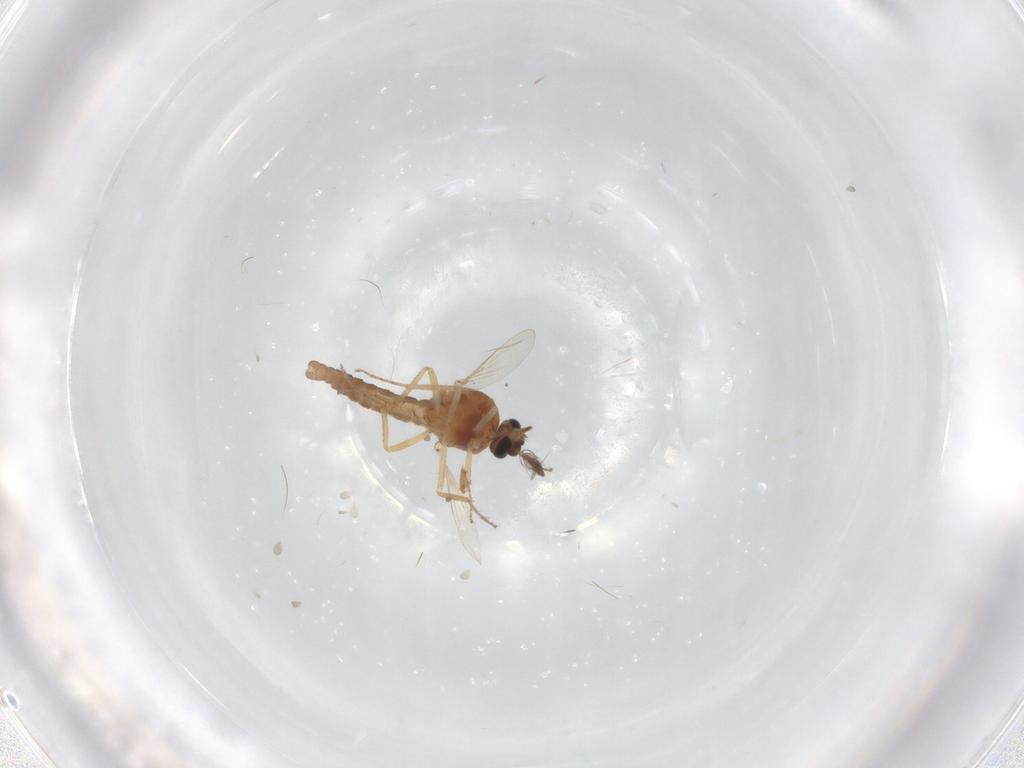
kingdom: Animalia
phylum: Arthropoda
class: Insecta
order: Diptera
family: Ceratopogonidae
